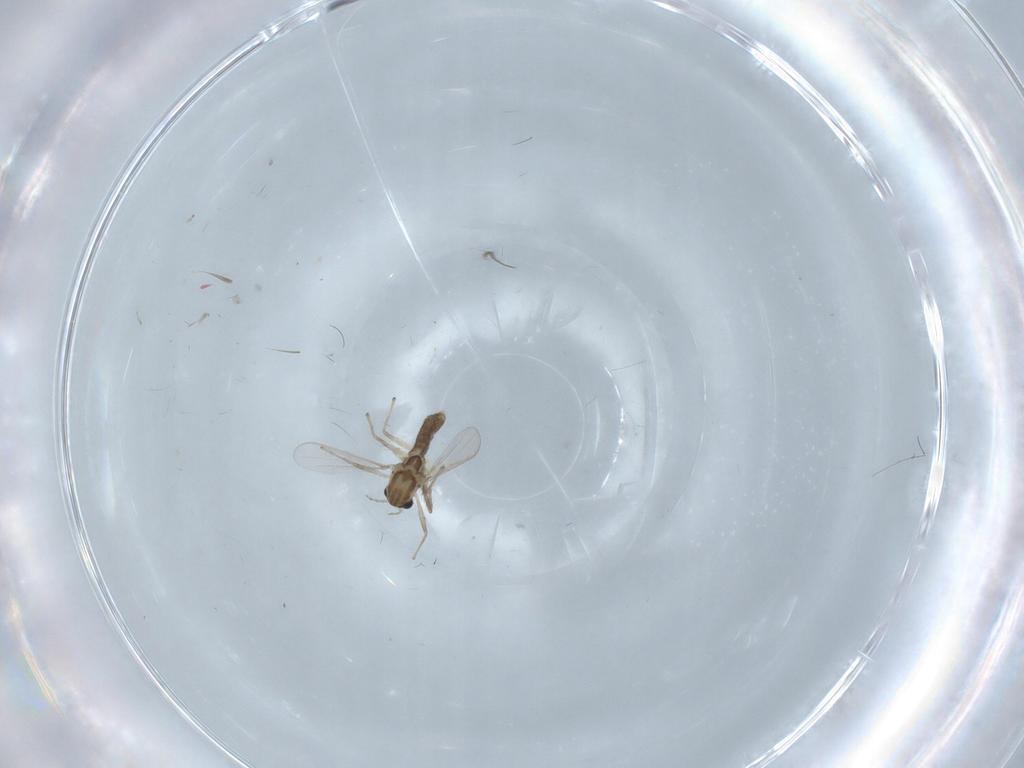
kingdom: Animalia
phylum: Arthropoda
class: Insecta
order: Diptera
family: Chironomidae
